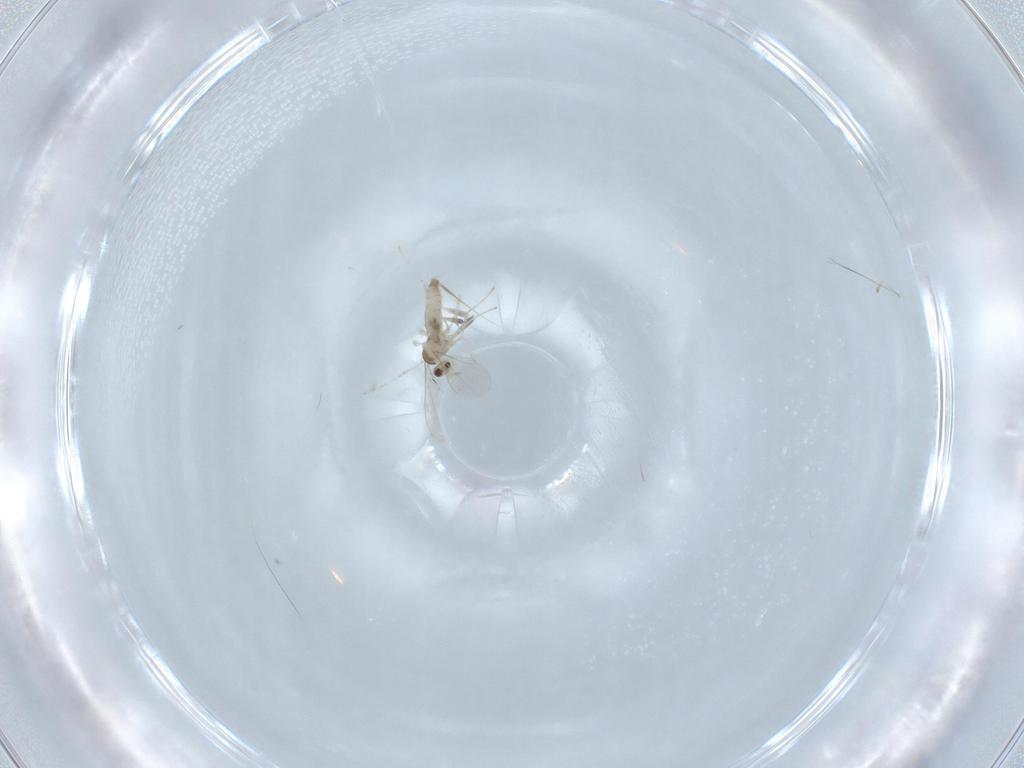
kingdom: Animalia
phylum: Arthropoda
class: Insecta
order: Diptera
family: Cecidomyiidae
